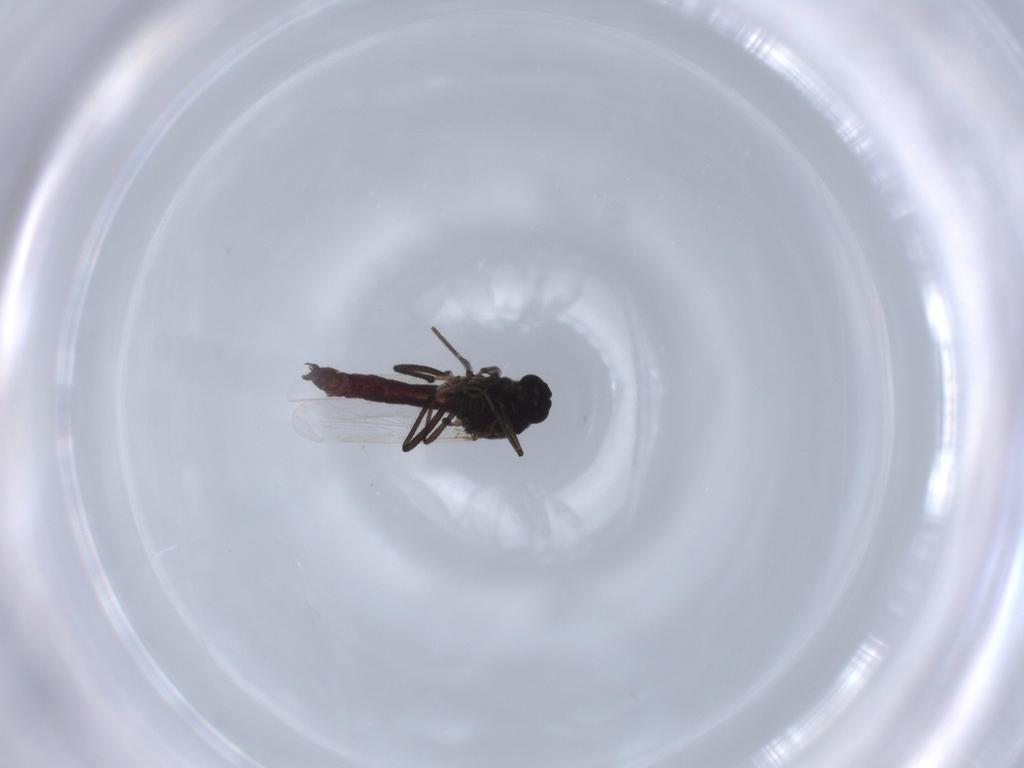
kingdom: Animalia
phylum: Arthropoda
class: Insecta
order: Diptera
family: Ceratopogonidae
